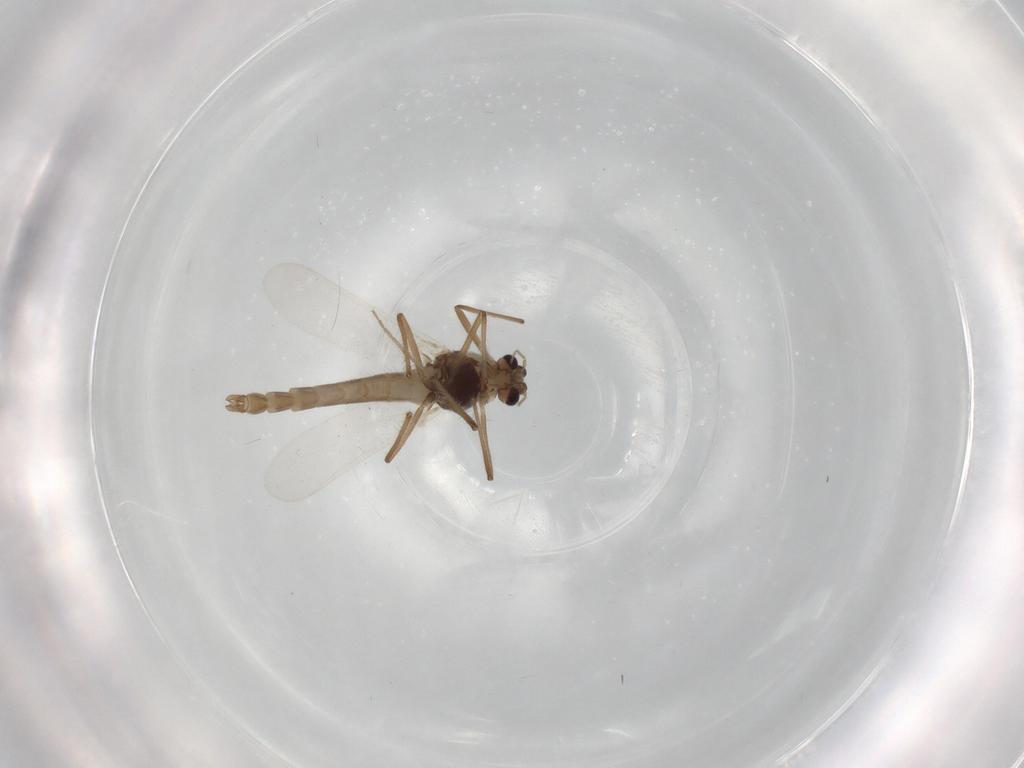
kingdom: Animalia
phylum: Arthropoda
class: Insecta
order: Diptera
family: Chironomidae
